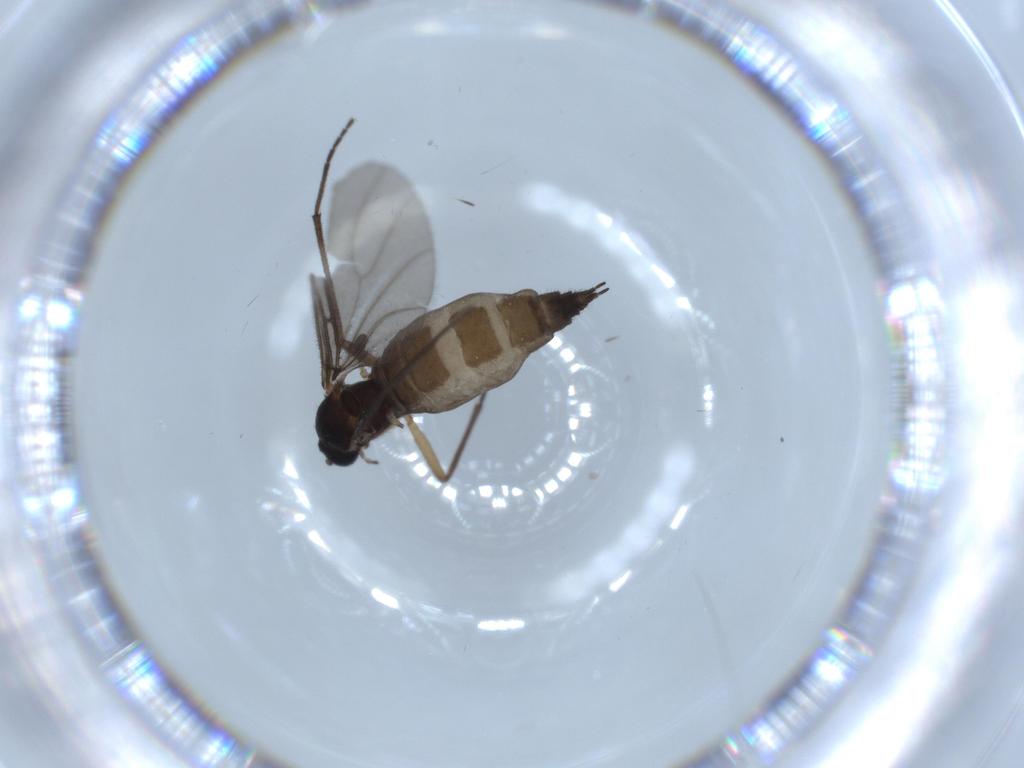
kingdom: Animalia
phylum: Arthropoda
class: Insecta
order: Diptera
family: Sciaridae
